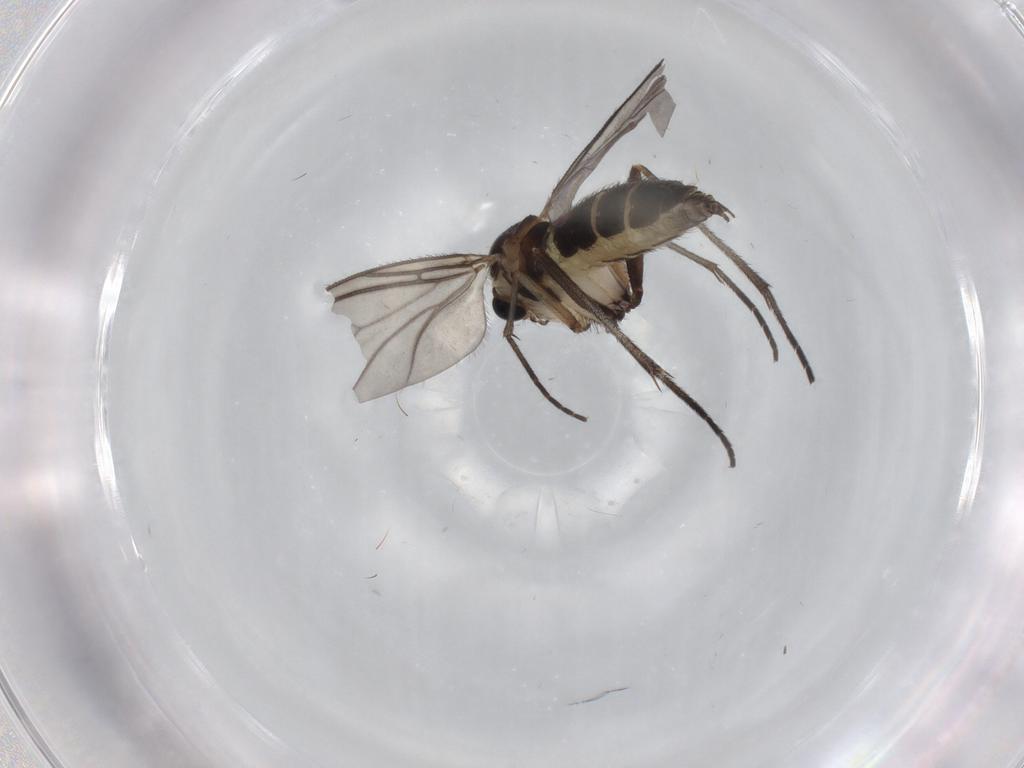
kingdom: Animalia
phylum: Arthropoda
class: Insecta
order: Diptera
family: Sciaridae
